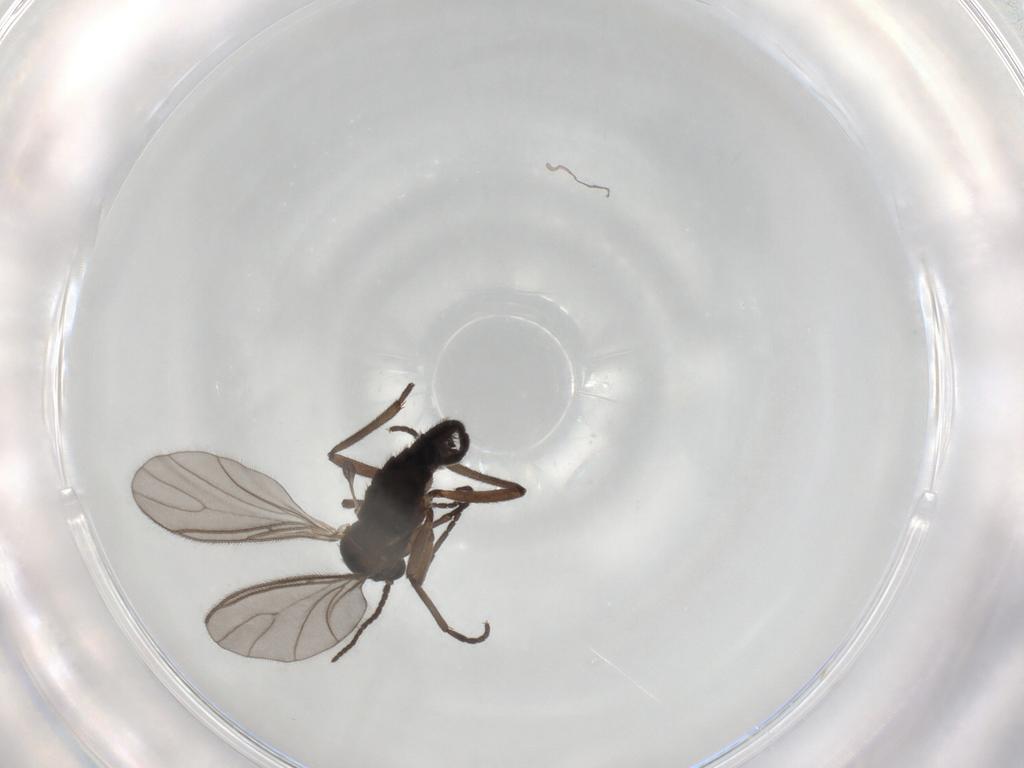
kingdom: Animalia
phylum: Arthropoda
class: Insecta
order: Diptera
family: Sciaridae
